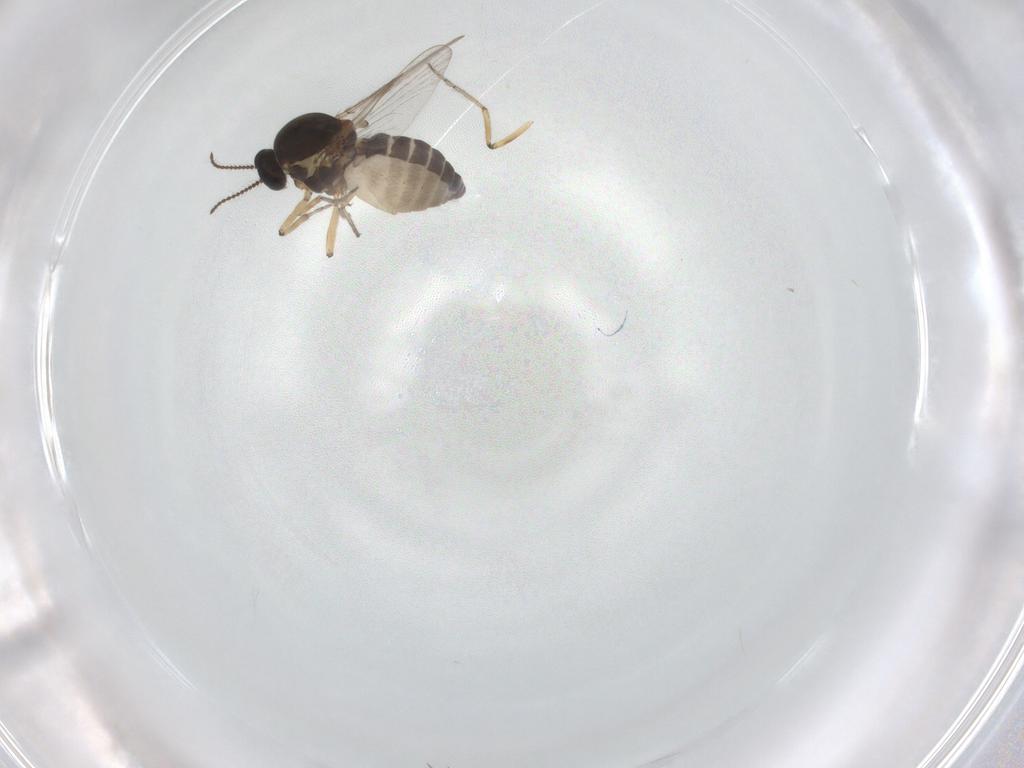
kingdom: Animalia
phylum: Arthropoda
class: Insecta
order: Diptera
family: Ceratopogonidae
